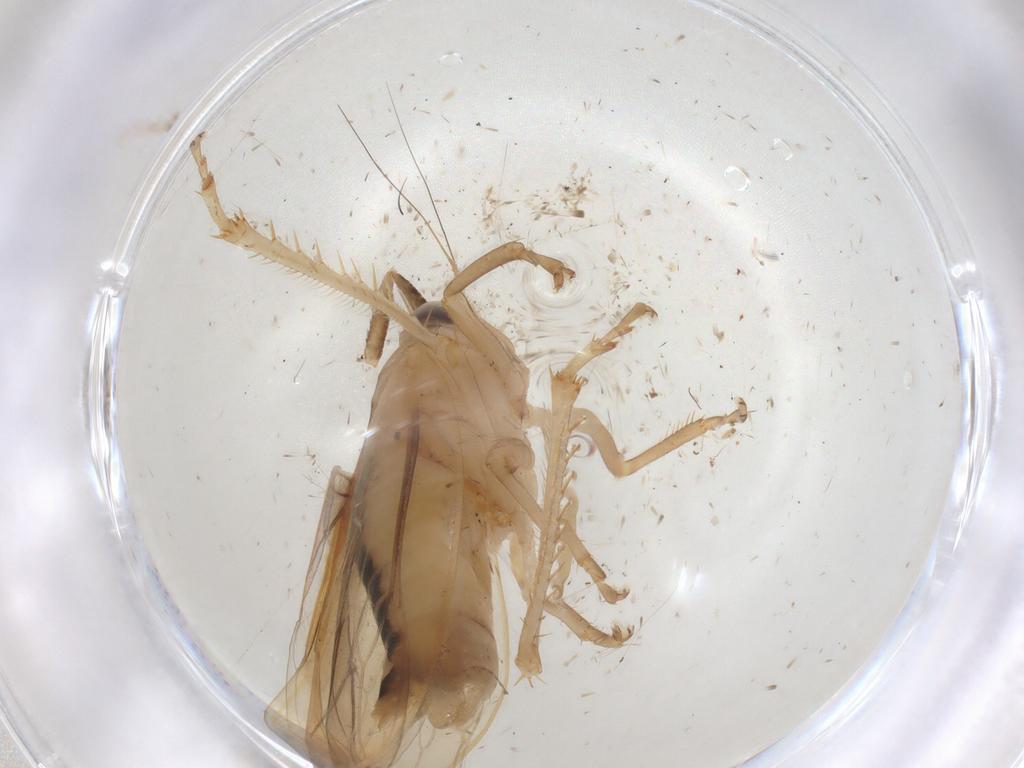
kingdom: Animalia
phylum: Arthropoda
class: Insecta
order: Hemiptera
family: Cicadellidae
